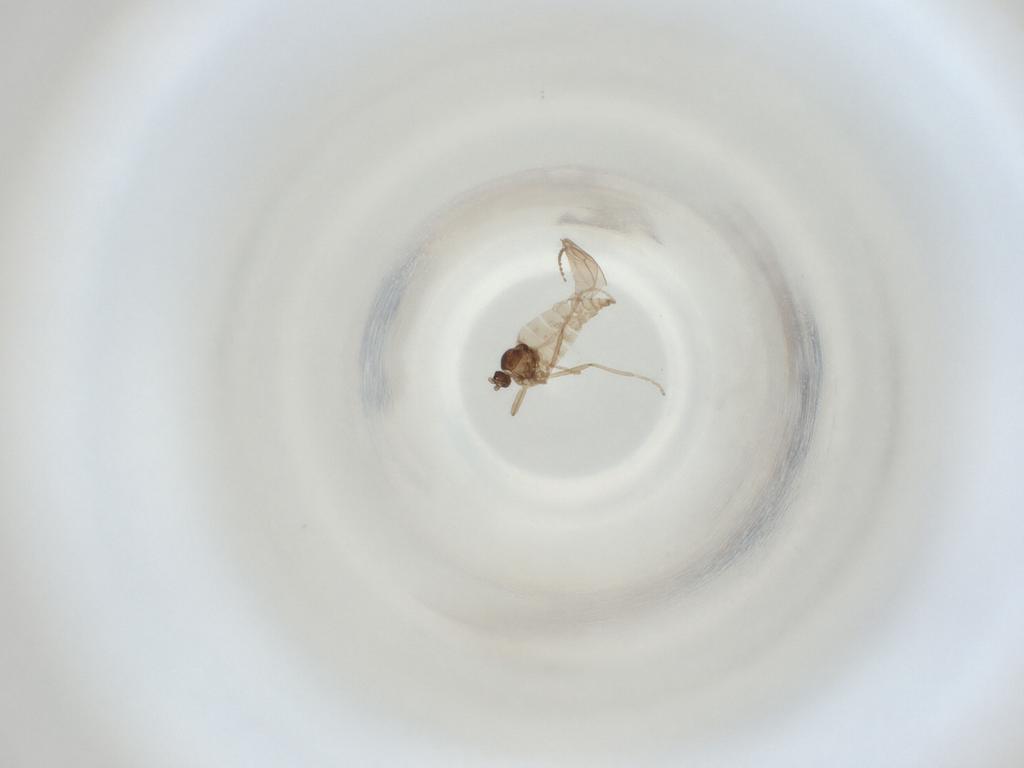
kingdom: Animalia
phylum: Arthropoda
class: Insecta
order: Diptera
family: Cecidomyiidae
